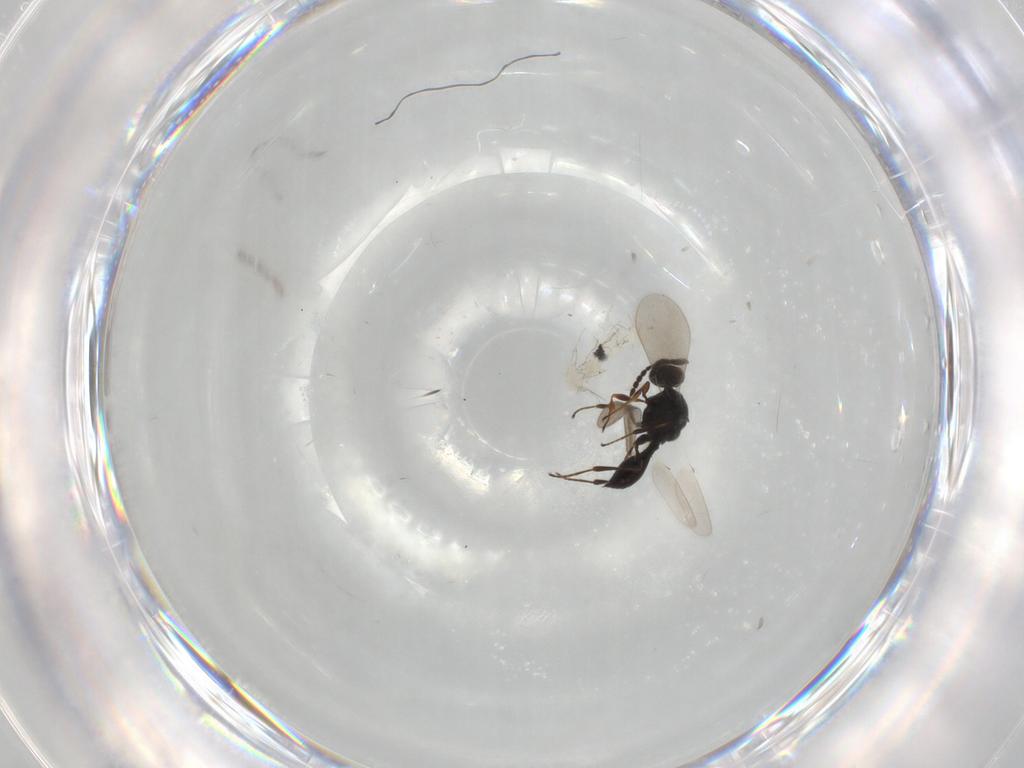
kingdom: Animalia
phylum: Arthropoda
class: Insecta
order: Hymenoptera
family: Platygastridae
